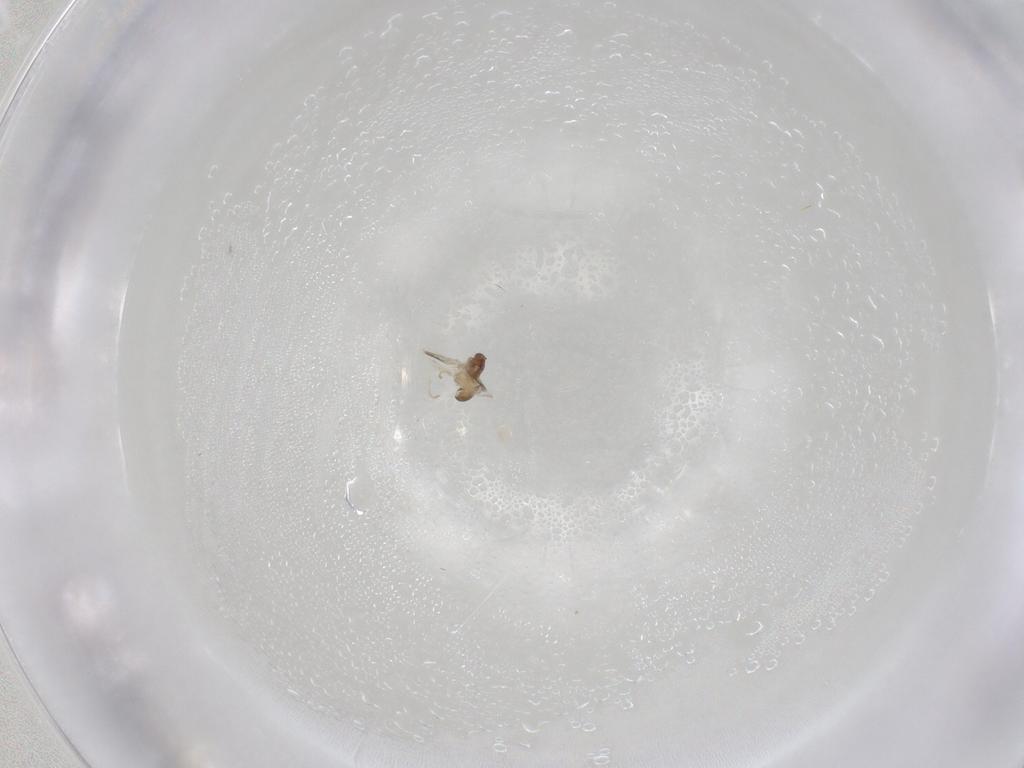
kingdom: Animalia
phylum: Arthropoda
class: Insecta
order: Diptera
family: Cecidomyiidae
